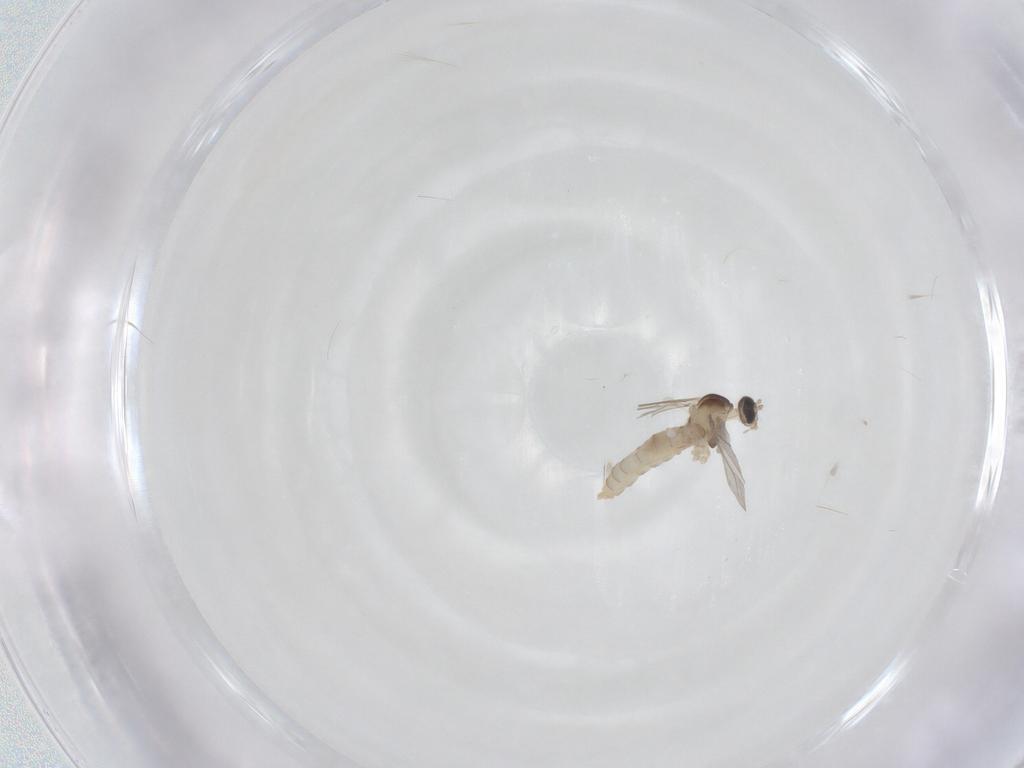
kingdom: Animalia
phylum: Arthropoda
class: Insecta
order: Diptera
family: Cecidomyiidae
